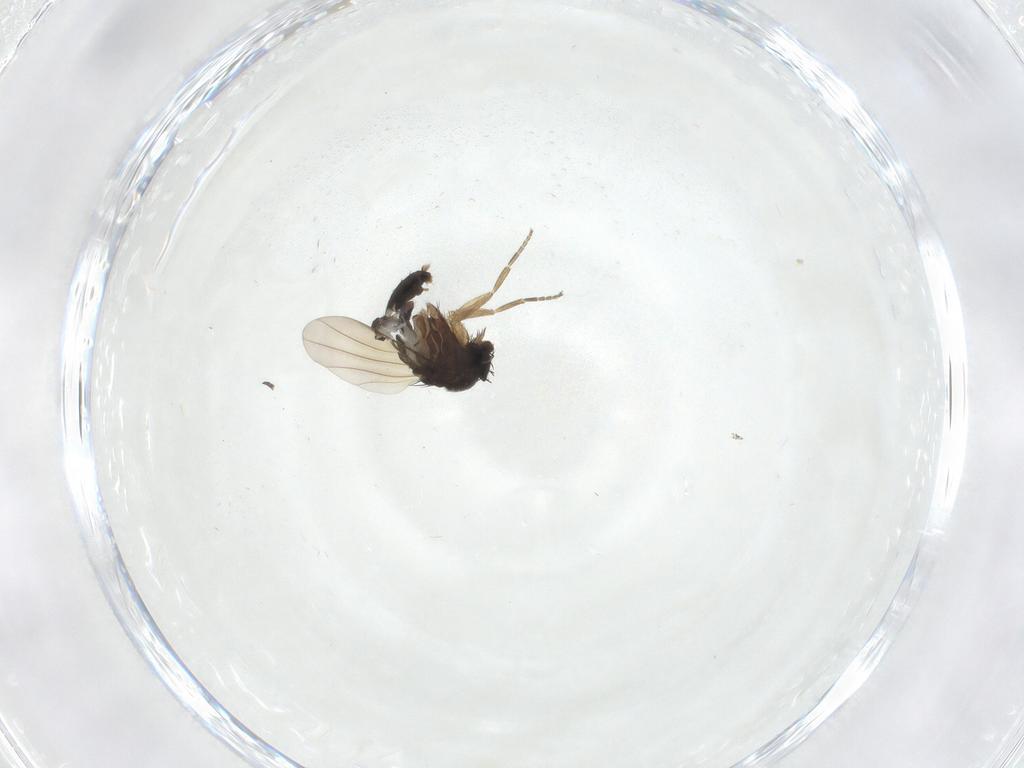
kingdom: Animalia
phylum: Arthropoda
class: Insecta
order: Diptera
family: Phoridae
